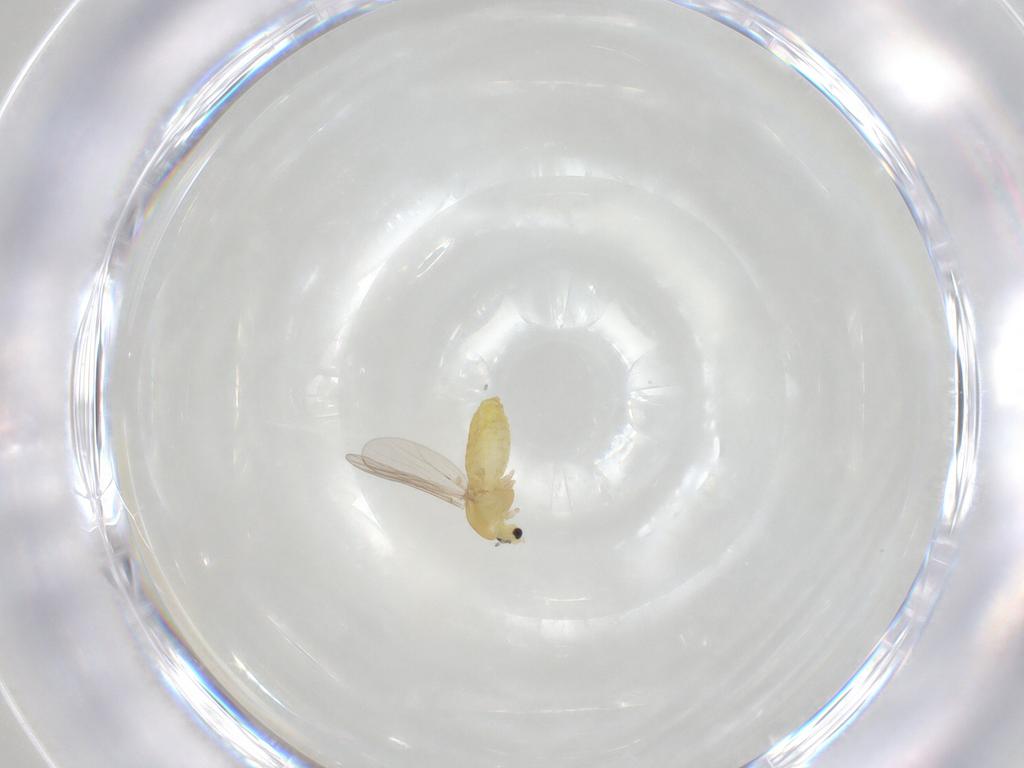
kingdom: Animalia
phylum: Arthropoda
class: Insecta
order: Diptera
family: Chironomidae
